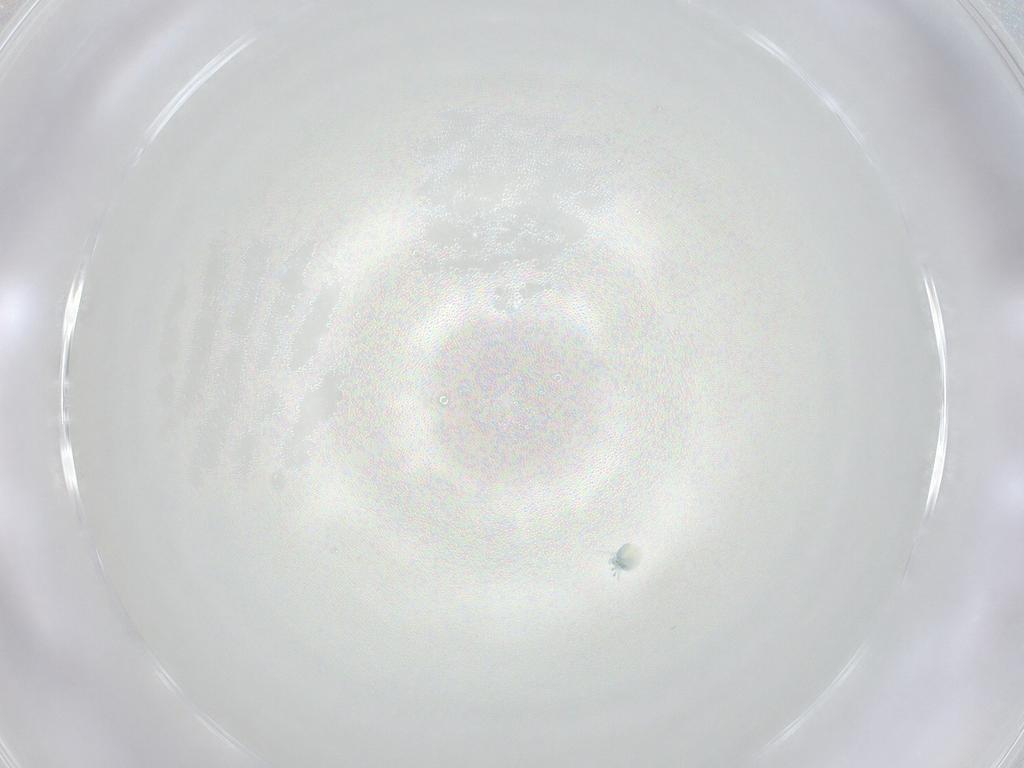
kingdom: Animalia
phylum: Arthropoda
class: Arachnida
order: Trombidiformes
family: Arrenuridae
